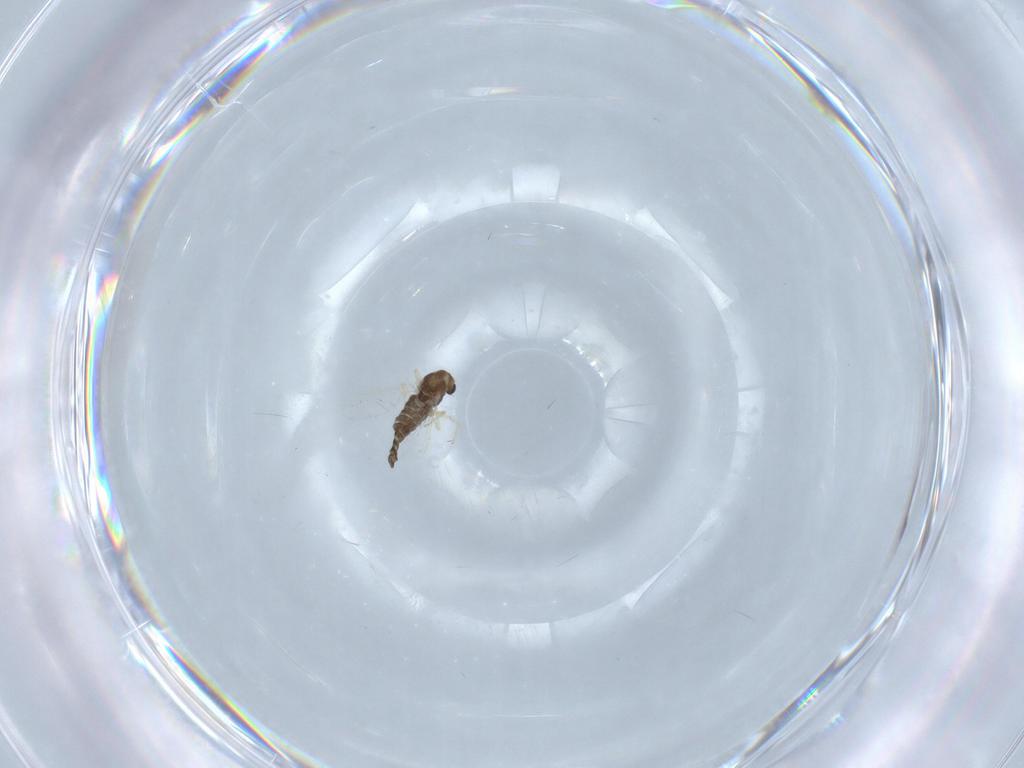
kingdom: Animalia
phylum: Arthropoda
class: Insecta
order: Diptera
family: Chironomidae
